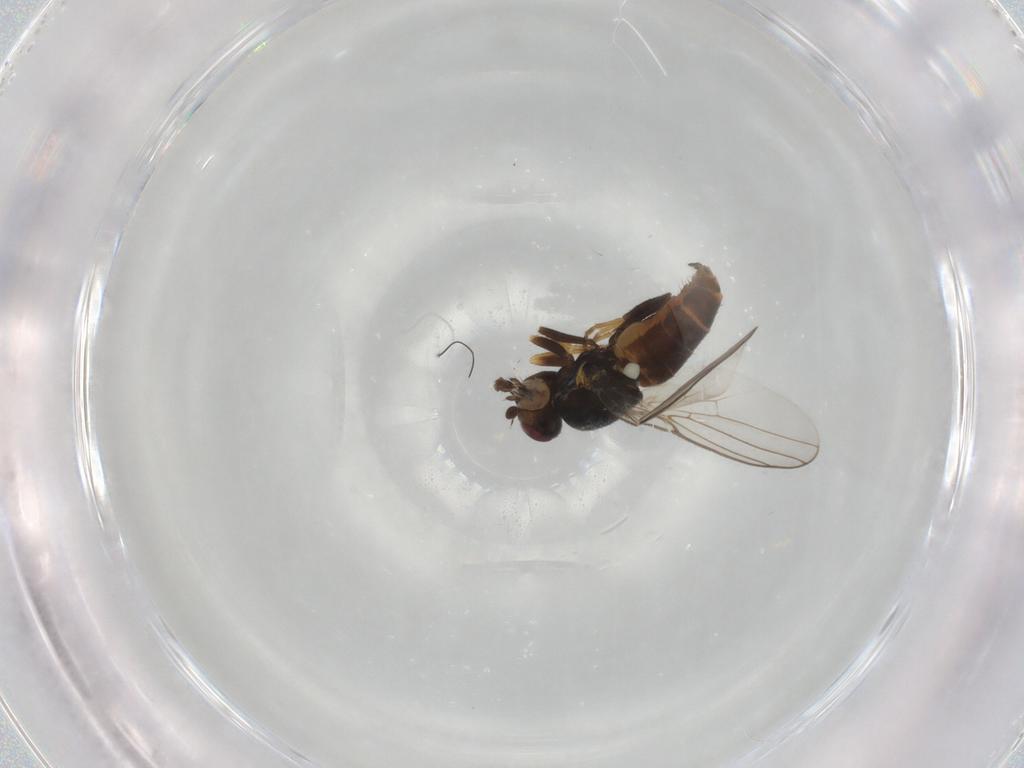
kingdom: Animalia
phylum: Arthropoda
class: Insecta
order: Diptera
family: Chloropidae
